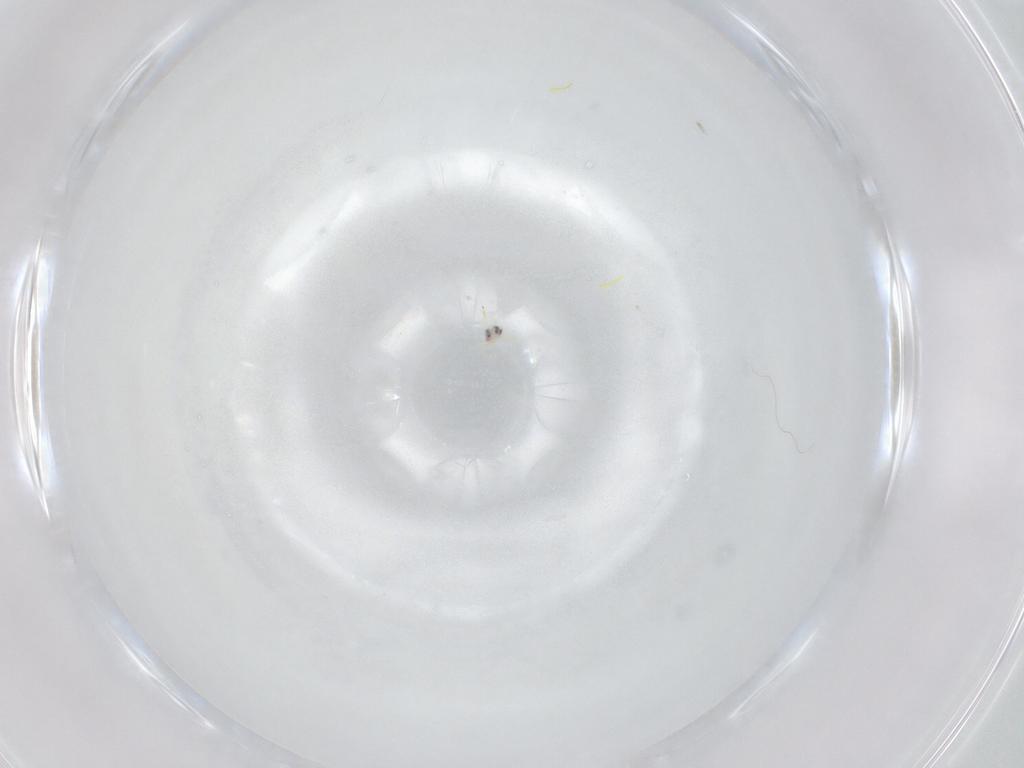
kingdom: Animalia
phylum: Arthropoda
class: Insecta
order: Hemiptera
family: Aleyrodidae
